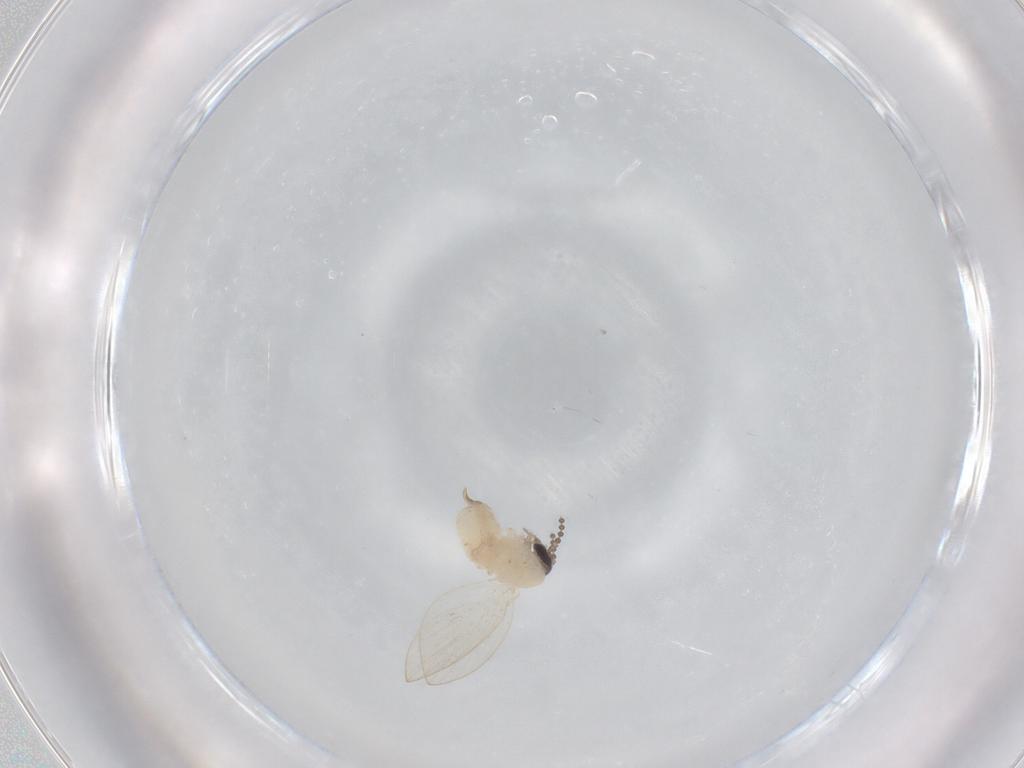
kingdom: Animalia
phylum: Arthropoda
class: Insecta
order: Diptera
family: Psychodidae
